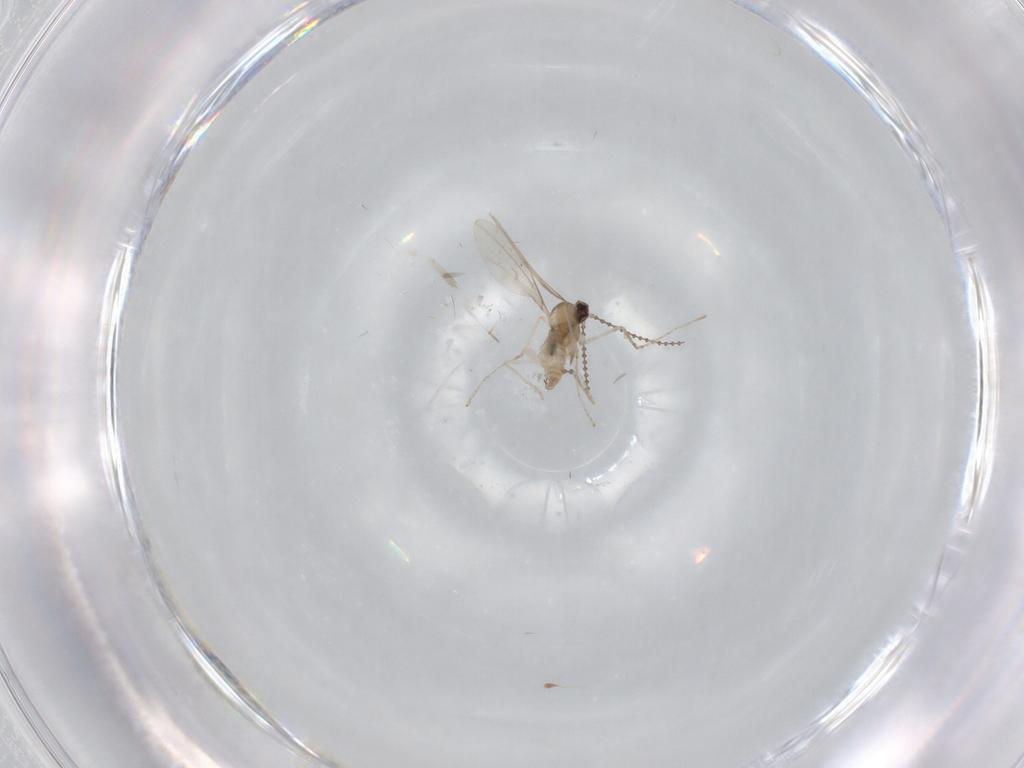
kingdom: Animalia
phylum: Arthropoda
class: Insecta
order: Diptera
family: Cecidomyiidae
